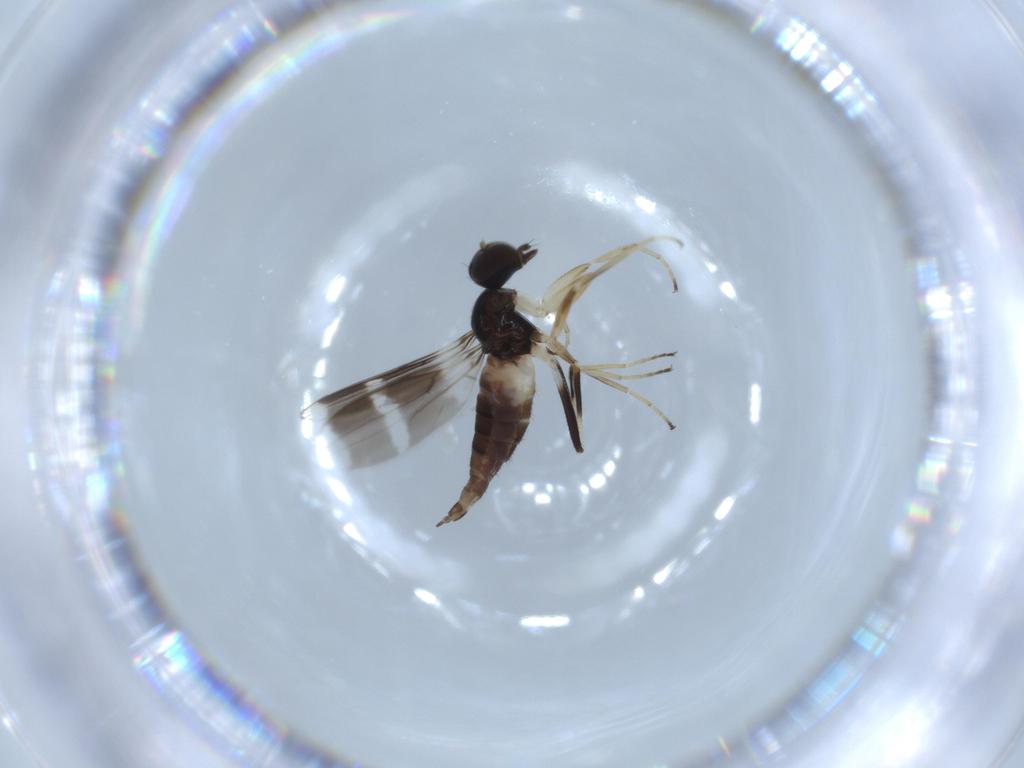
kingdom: Animalia
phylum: Arthropoda
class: Insecta
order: Diptera
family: Hybotidae
